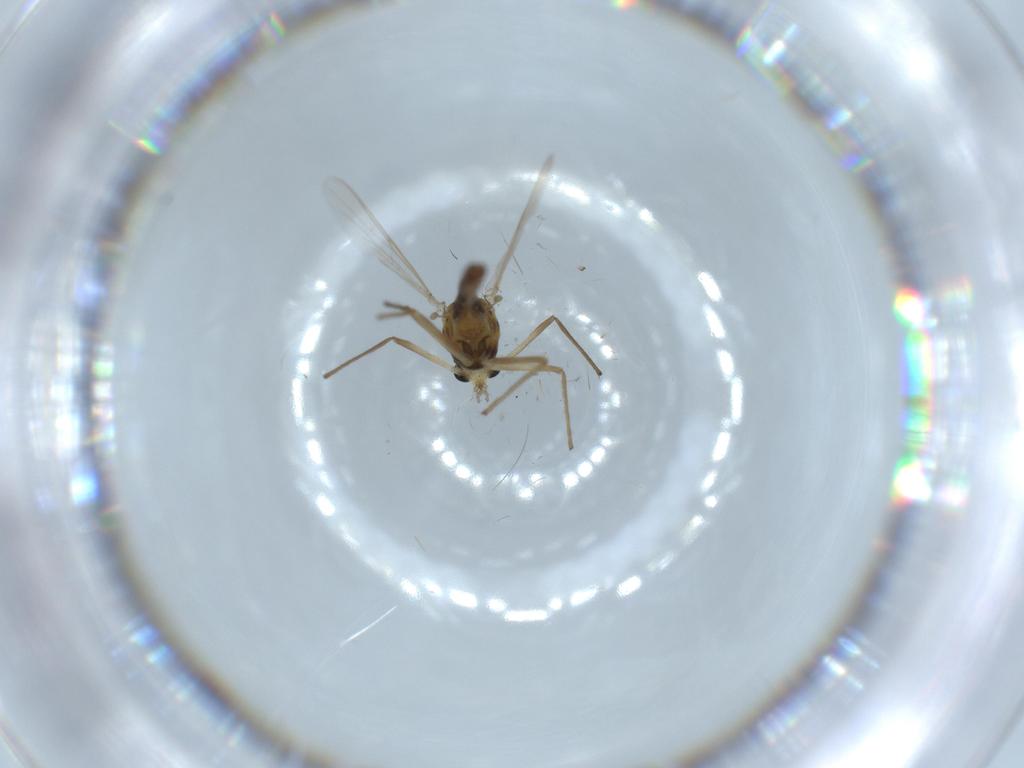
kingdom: Animalia
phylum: Arthropoda
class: Insecta
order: Diptera
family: Chironomidae
